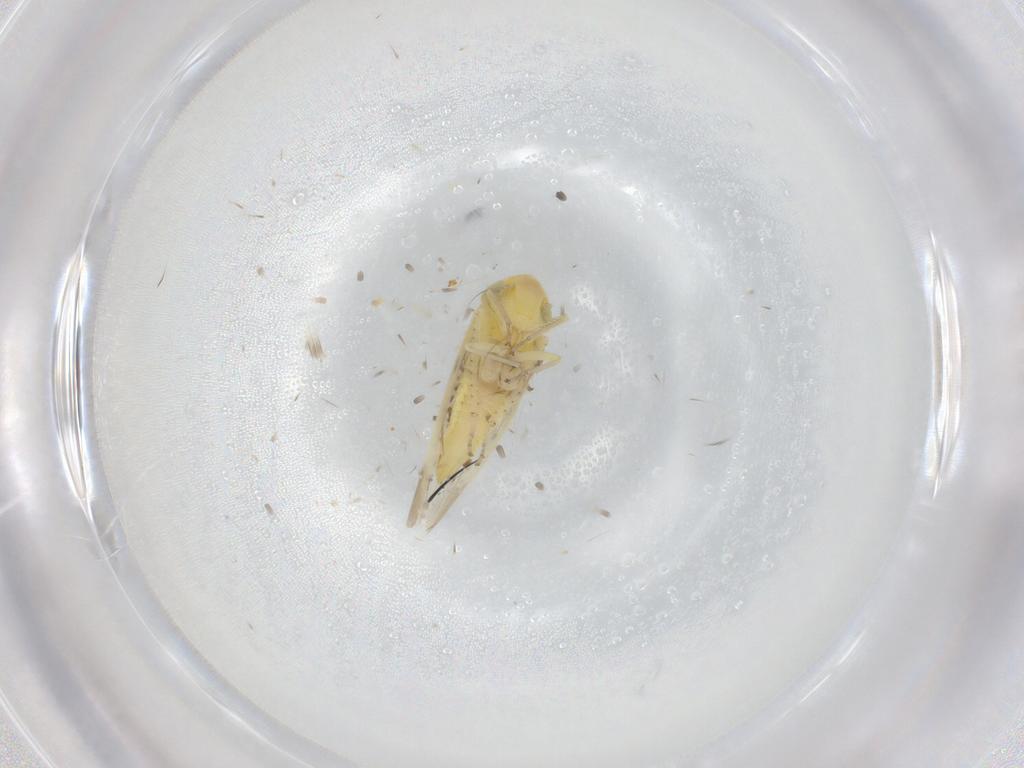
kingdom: Animalia
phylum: Arthropoda
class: Insecta
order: Hemiptera
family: Cicadellidae
